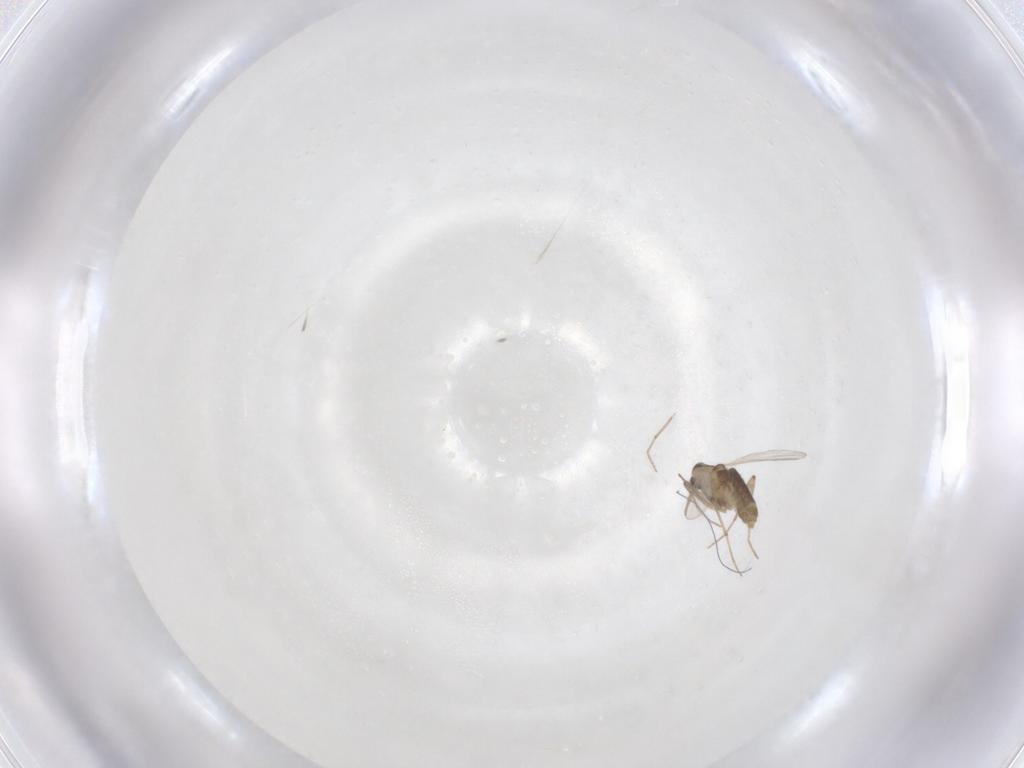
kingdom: Animalia
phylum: Arthropoda
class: Insecta
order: Diptera
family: Chironomidae
